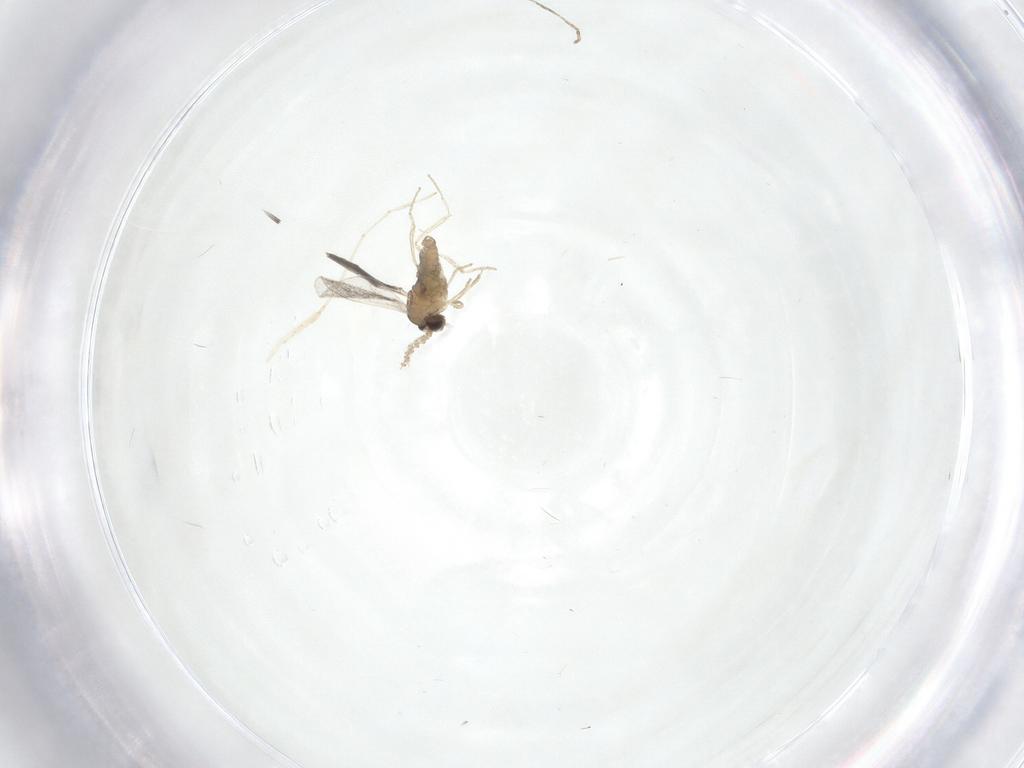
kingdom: Animalia
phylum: Arthropoda
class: Insecta
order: Diptera
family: Cecidomyiidae
